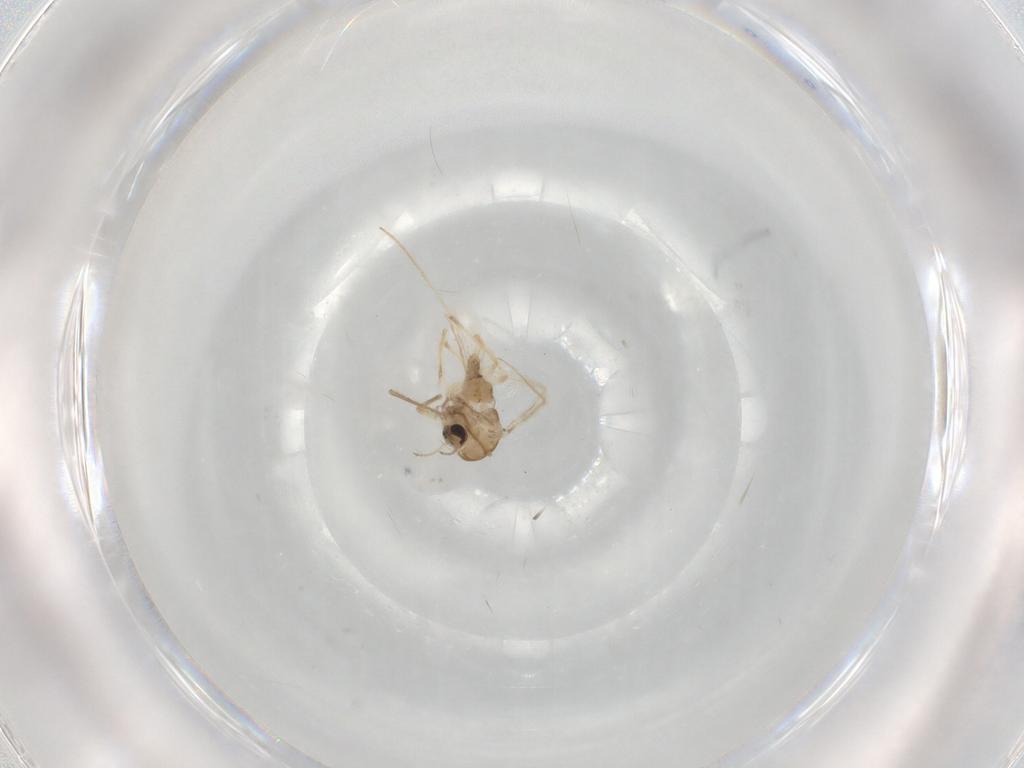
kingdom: Animalia
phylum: Arthropoda
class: Insecta
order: Diptera
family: Chironomidae
